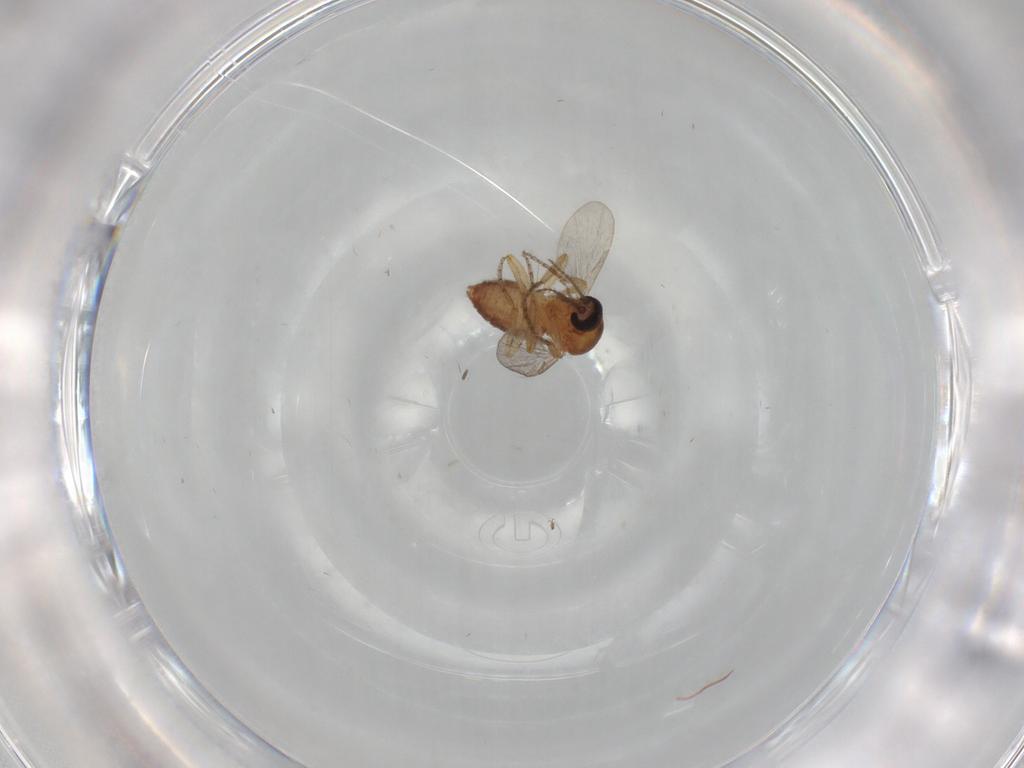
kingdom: Animalia
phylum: Arthropoda
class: Insecta
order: Diptera
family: Ceratopogonidae
